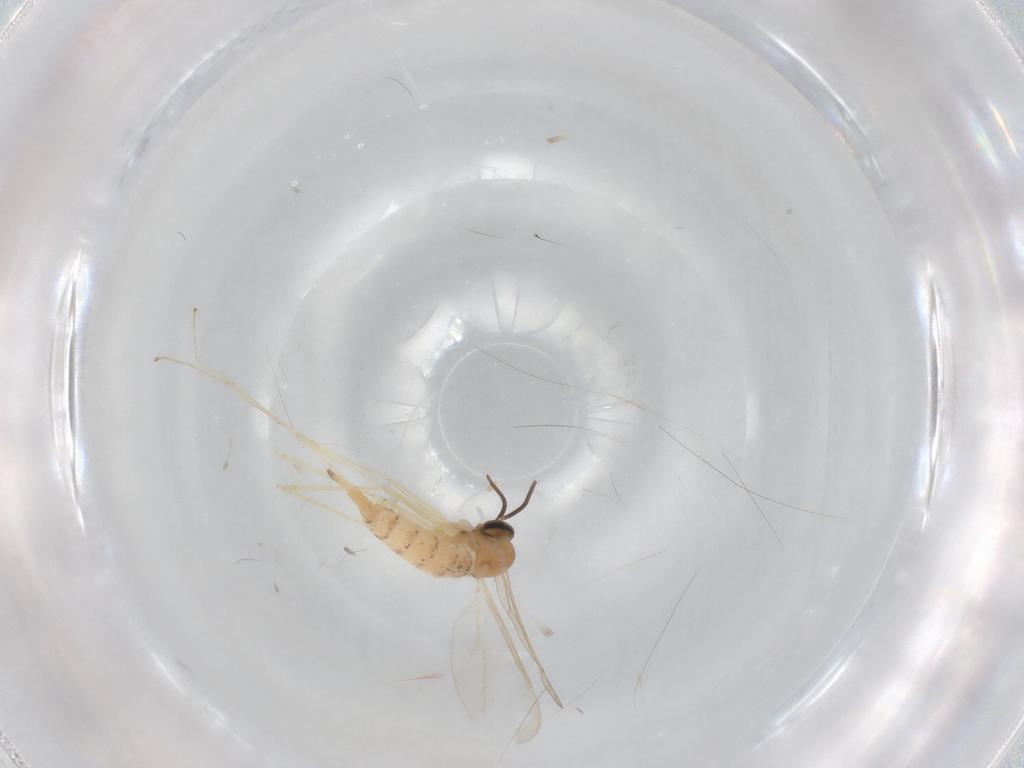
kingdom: Animalia
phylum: Arthropoda
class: Insecta
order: Diptera
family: Cecidomyiidae
